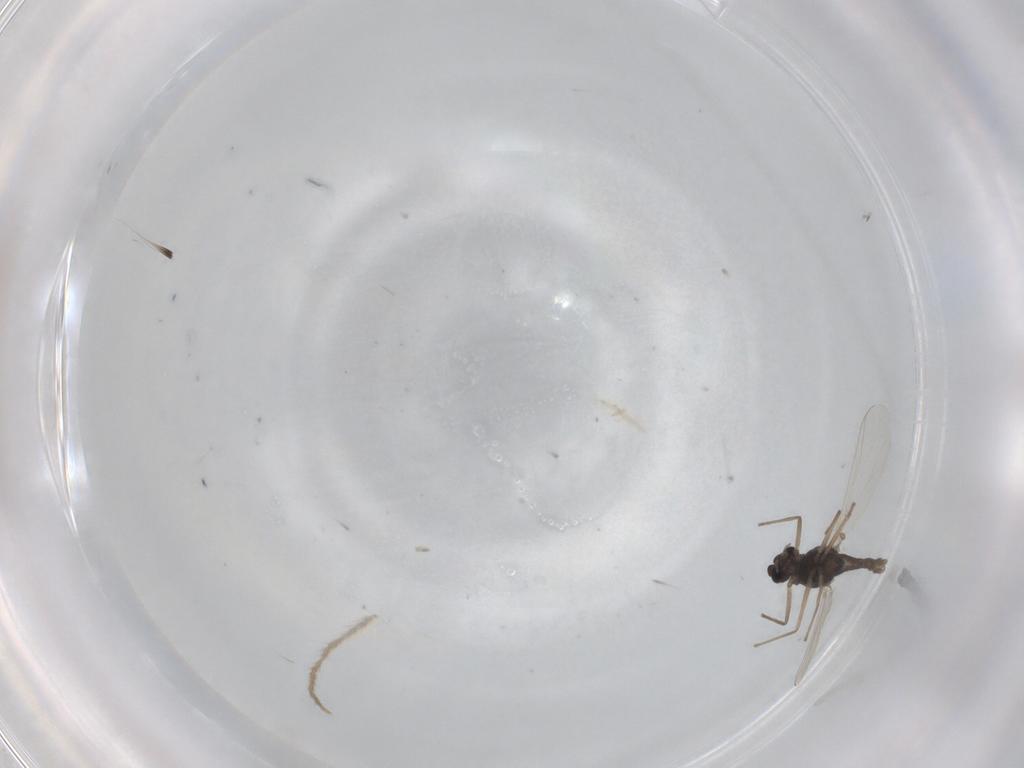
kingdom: Animalia
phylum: Arthropoda
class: Insecta
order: Diptera
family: Chironomidae
